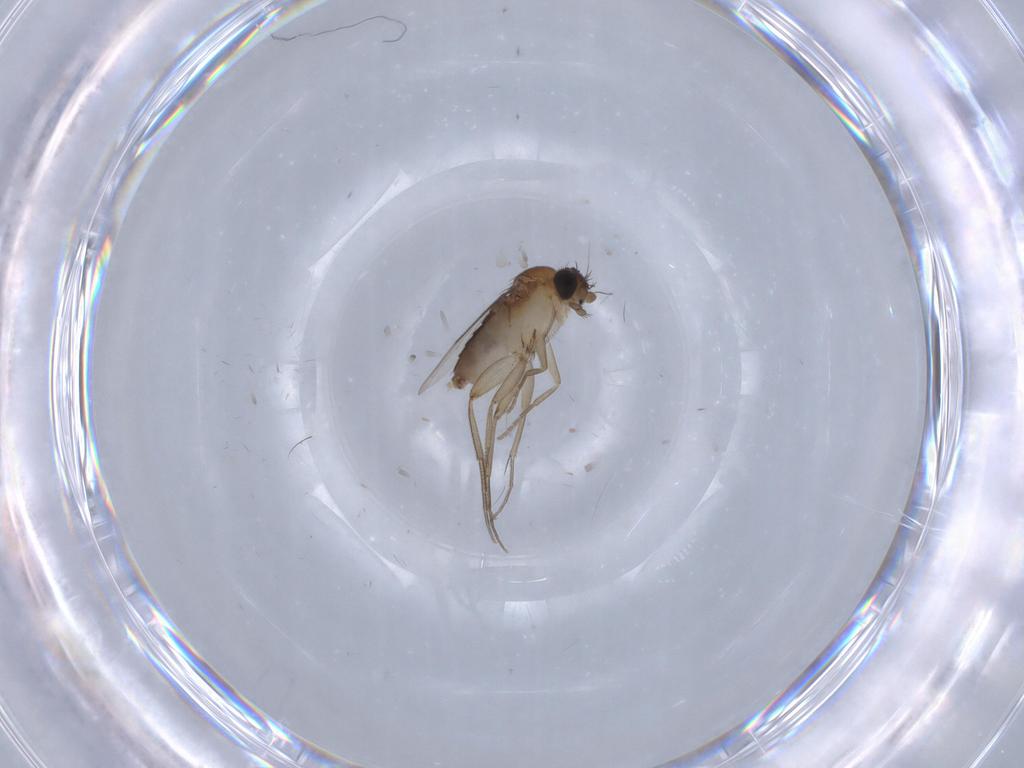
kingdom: Animalia
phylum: Arthropoda
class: Insecta
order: Diptera
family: Phoridae
